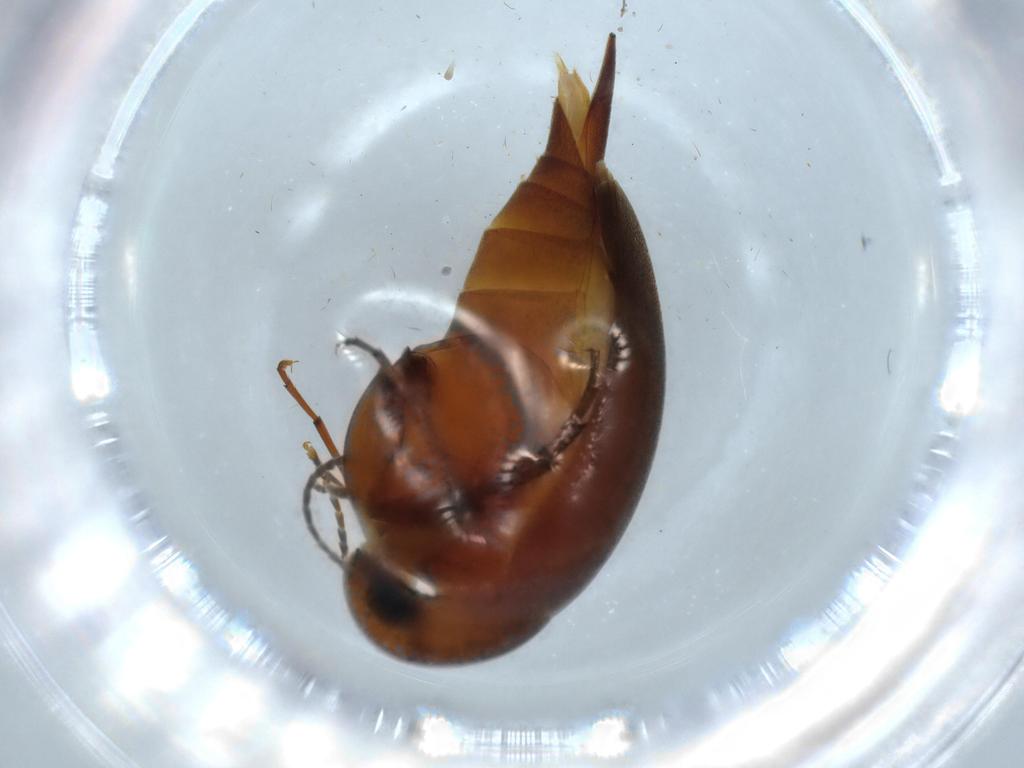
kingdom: Animalia
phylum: Arthropoda
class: Insecta
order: Coleoptera
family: Mordellidae
